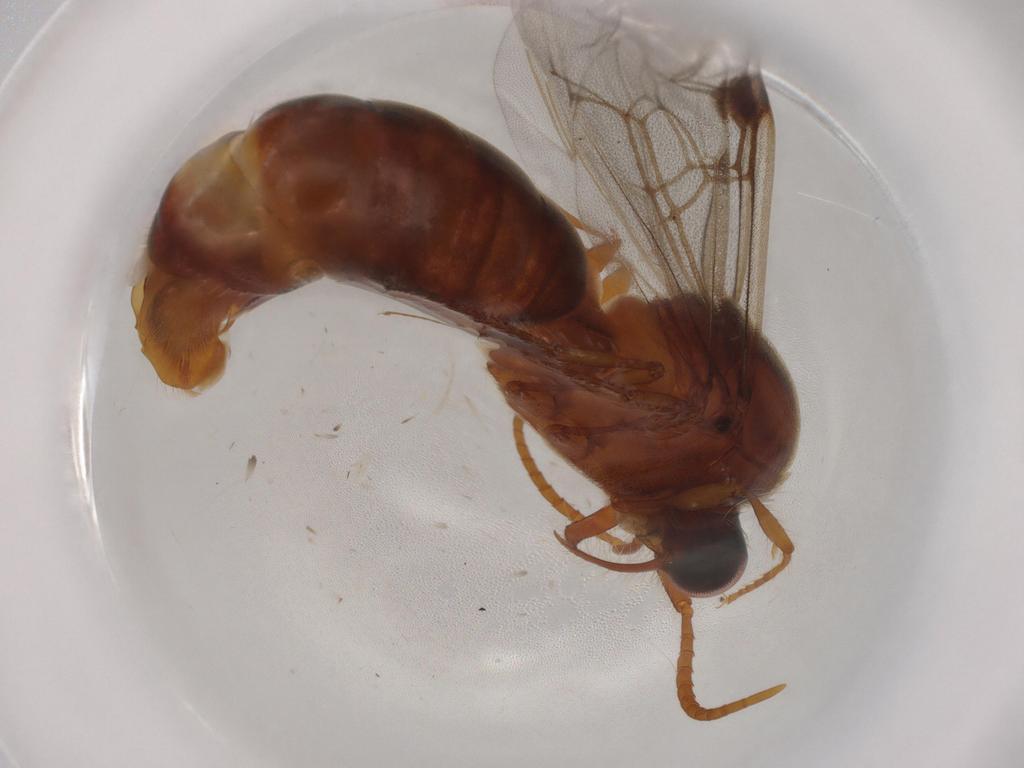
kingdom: Animalia
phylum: Arthropoda
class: Insecta
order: Hymenoptera
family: Formicidae
